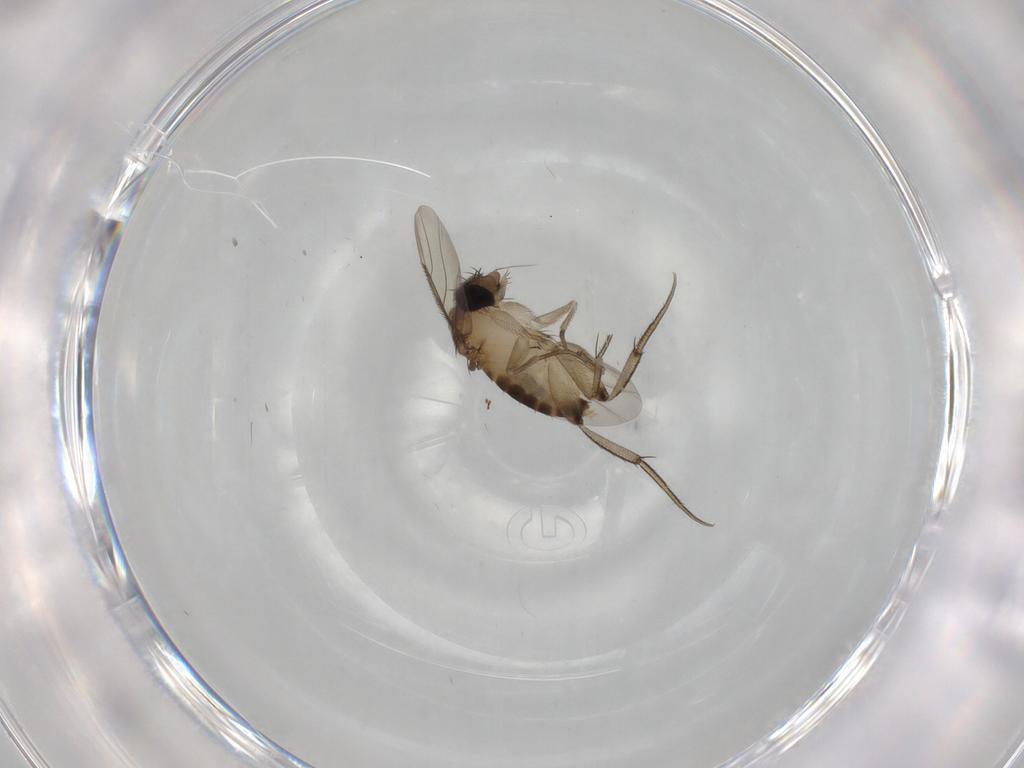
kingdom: Animalia
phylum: Arthropoda
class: Insecta
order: Diptera
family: Phoridae
